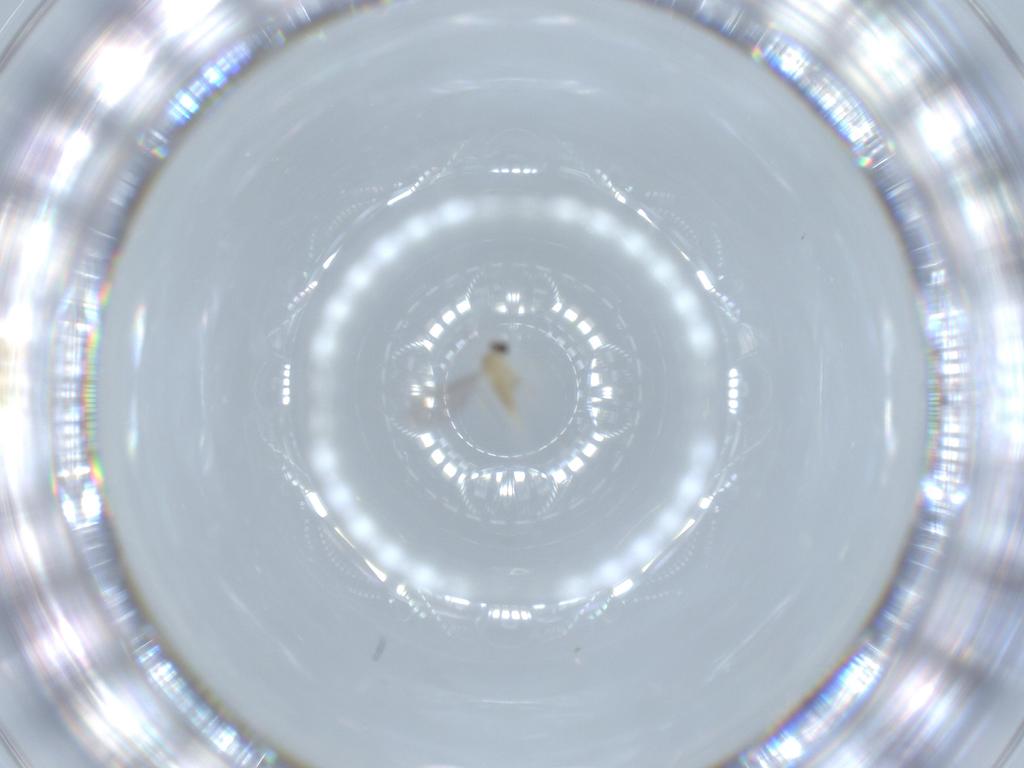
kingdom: Animalia
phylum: Arthropoda
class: Insecta
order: Diptera
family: Cecidomyiidae
